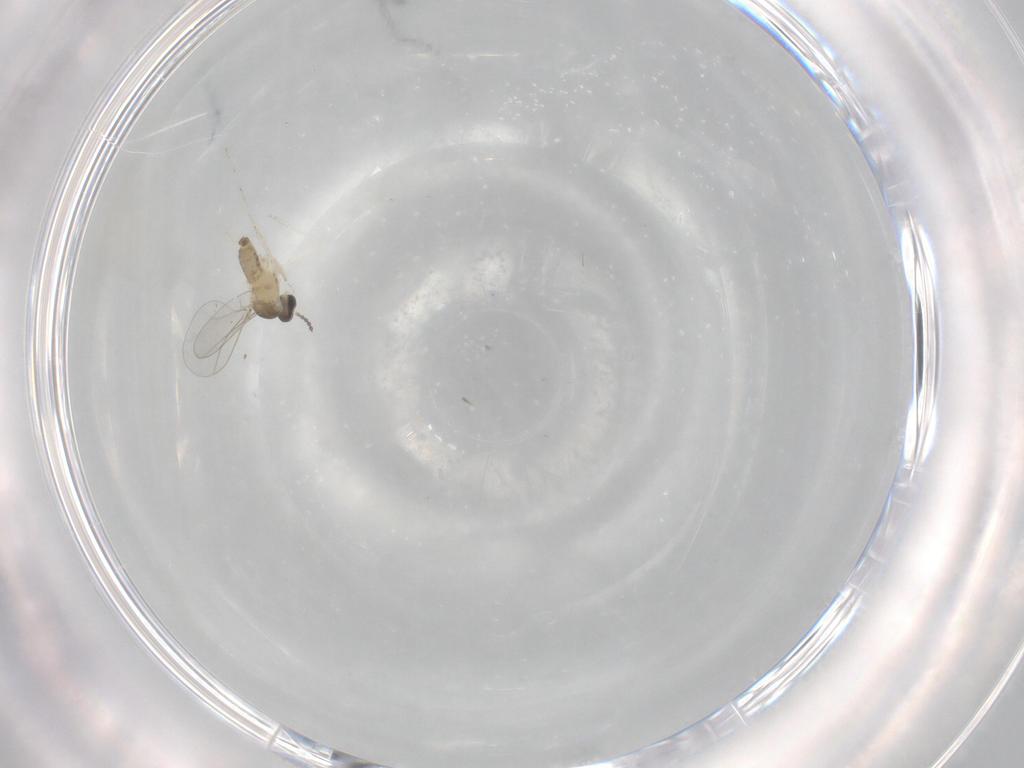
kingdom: Animalia
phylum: Arthropoda
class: Insecta
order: Diptera
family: Cecidomyiidae
